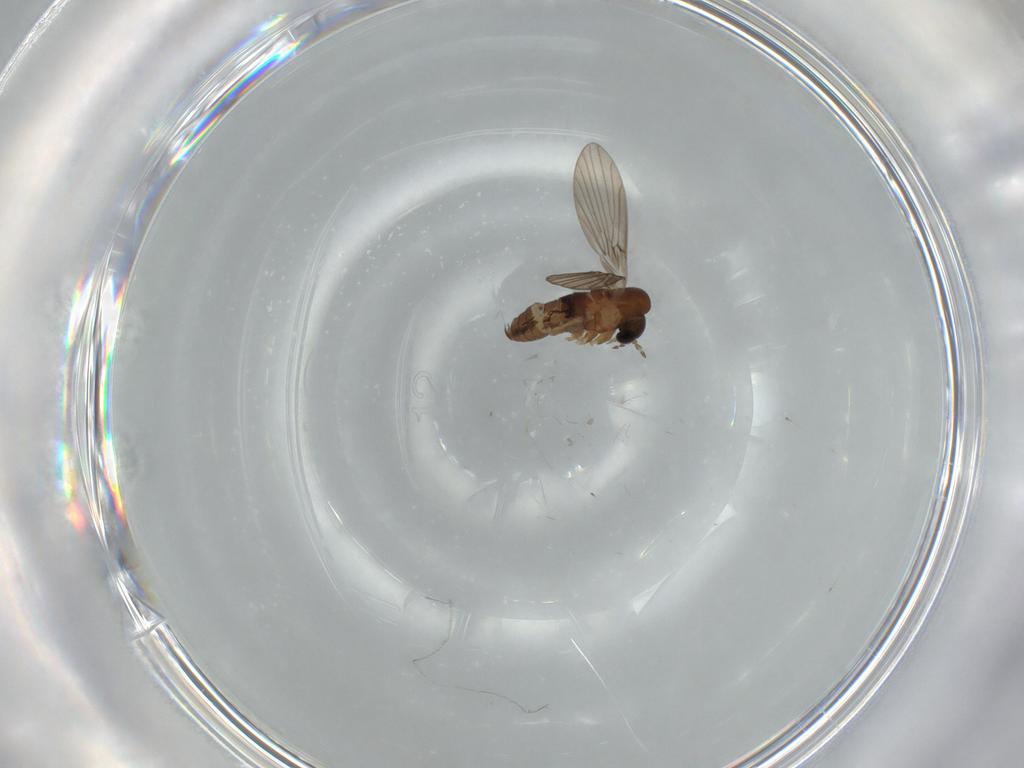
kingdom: Animalia
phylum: Arthropoda
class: Insecta
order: Diptera
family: Psychodidae
